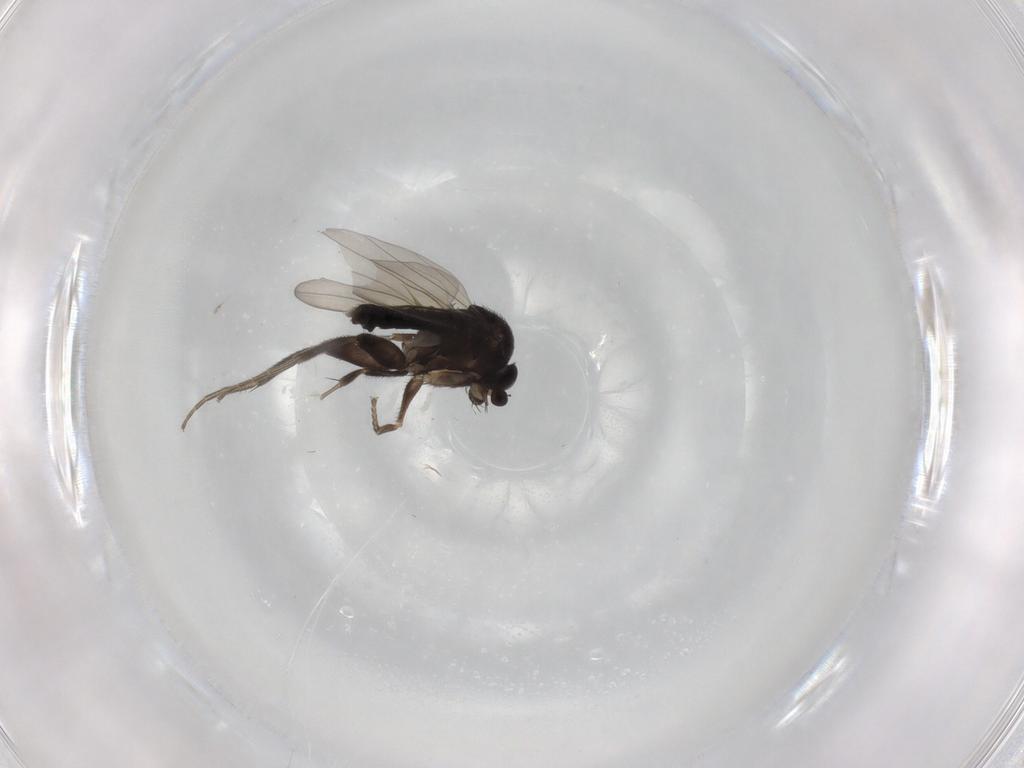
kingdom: Animalia
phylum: Arthropoda
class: Insecta
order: Diptera
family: Phoridae
